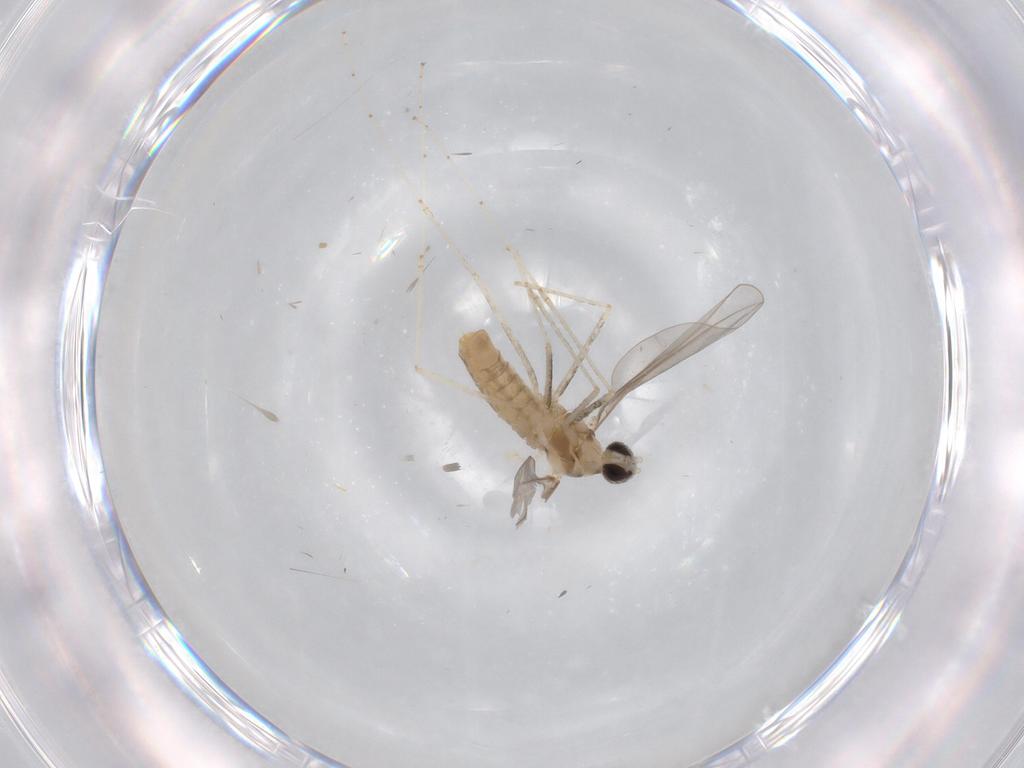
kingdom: Animalia
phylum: Arthropoda
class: Insecta
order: Diptera
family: Cecidomyiidae
